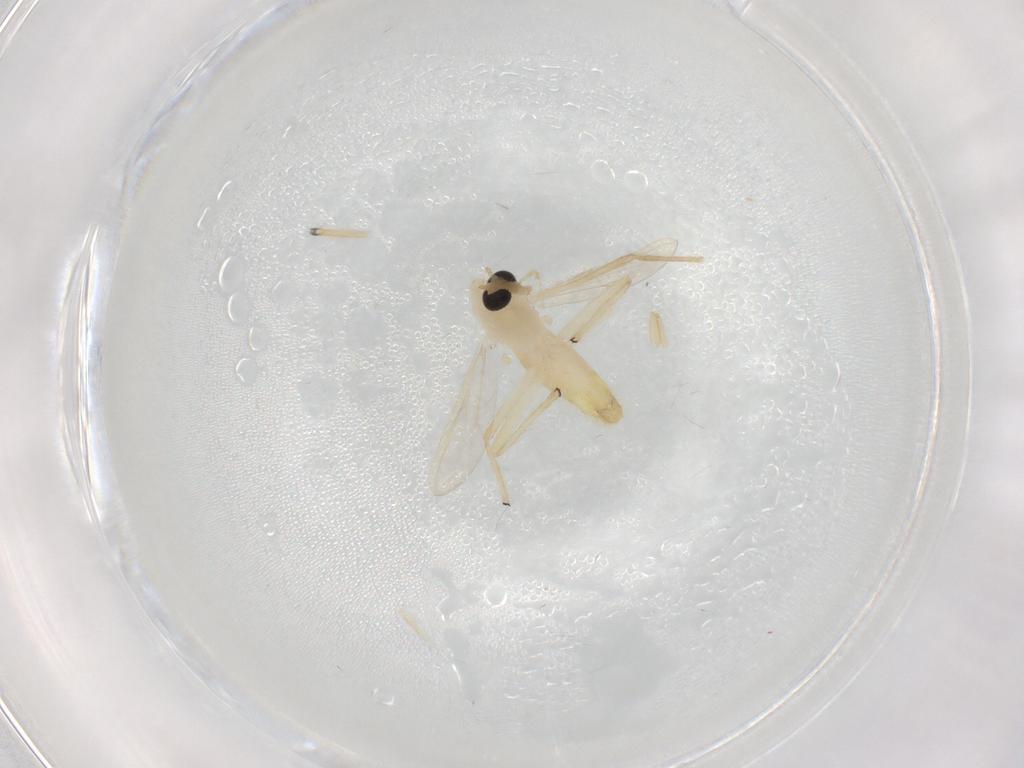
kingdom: Animalia
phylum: Arthropoda
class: Insecta
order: Diptera
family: Chironomidae
